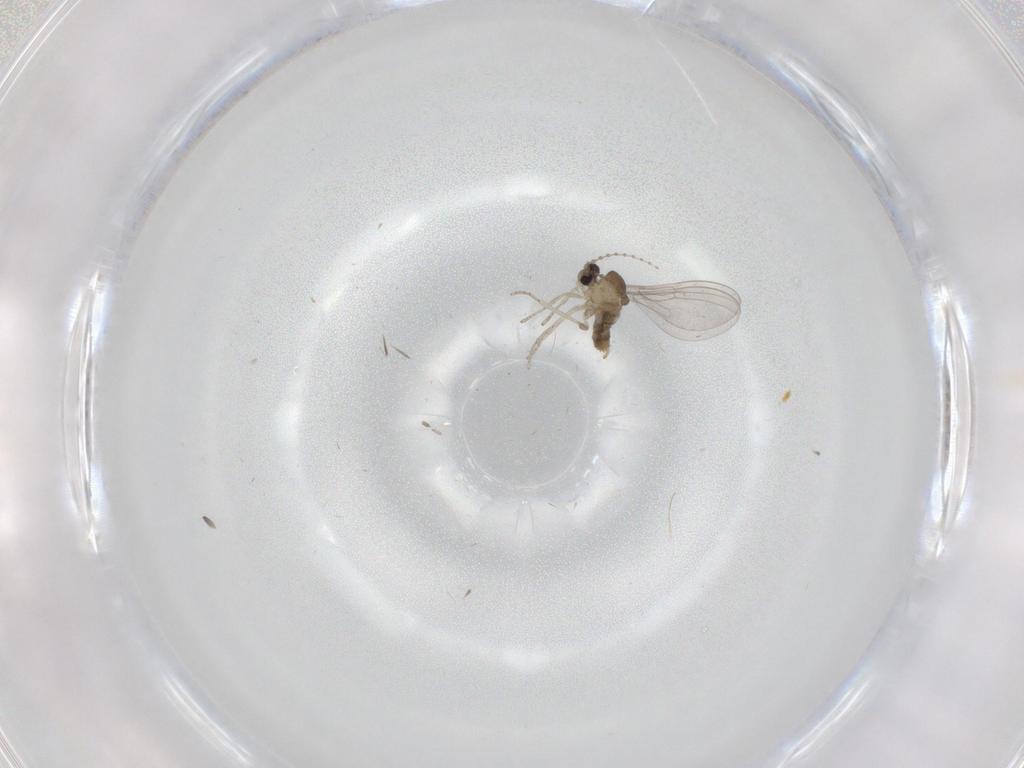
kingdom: Animalia
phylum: Arthropoda
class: Insecta
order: Diptera
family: Cecidomyiidae
